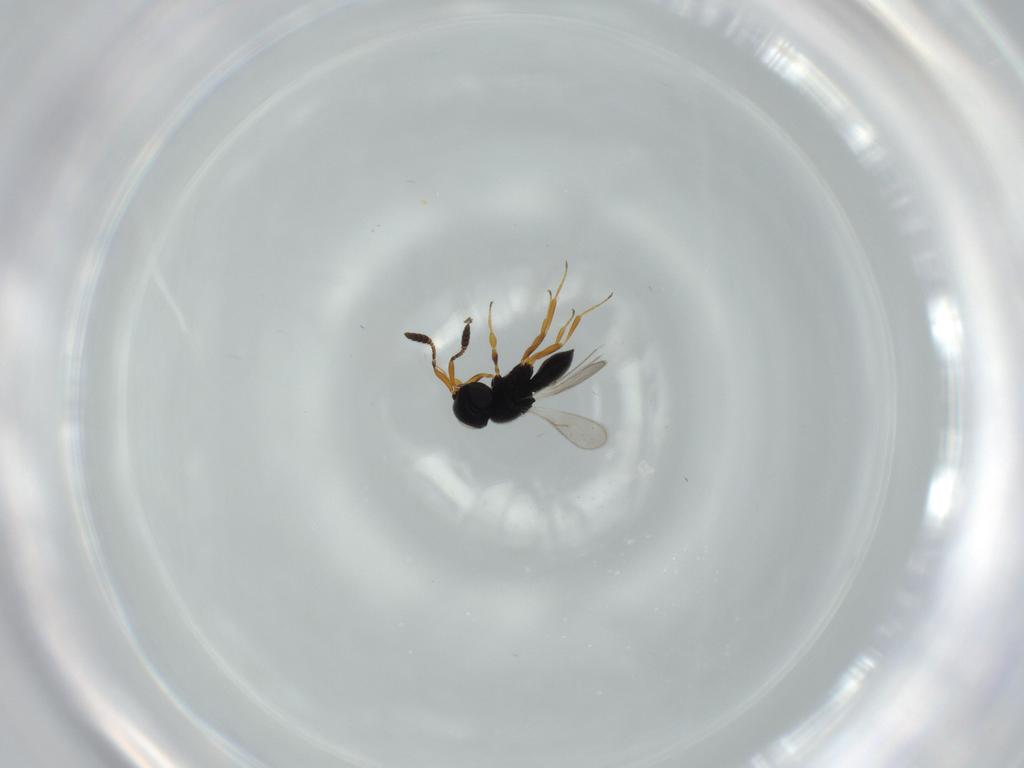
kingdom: Animalia
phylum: Arthropoda
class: Insecta
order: Hymenoptera
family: Scelionidae
